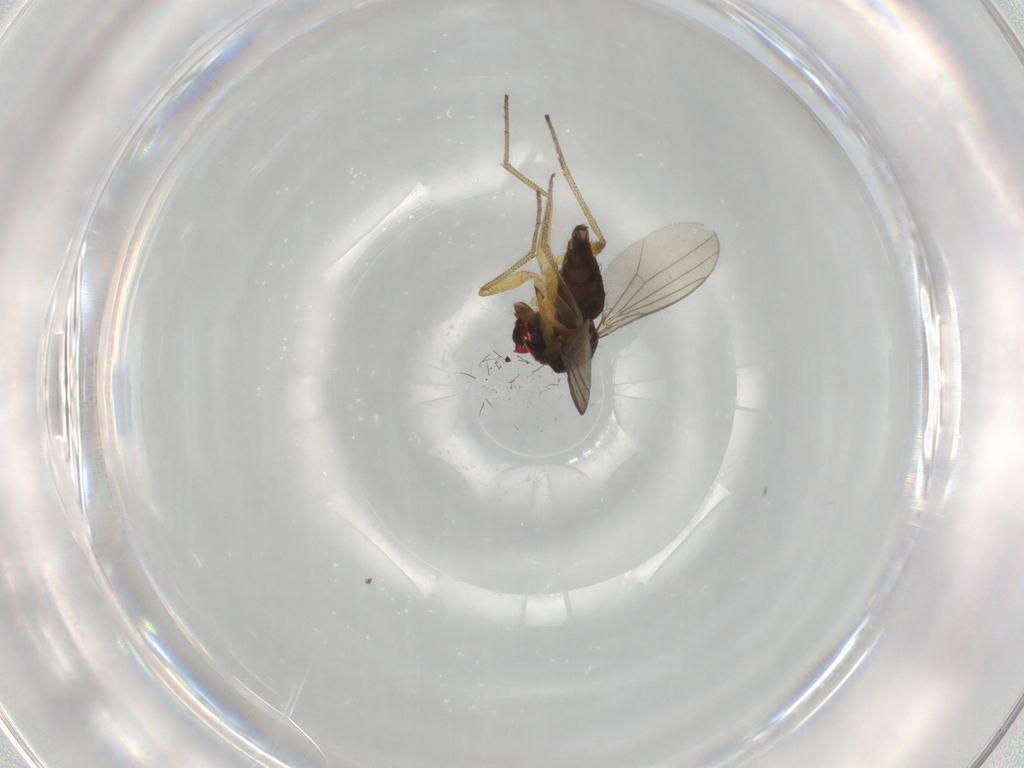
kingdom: Animalia
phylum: Arthropoda
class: Insecta
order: Diptera
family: Dolichopodidae
